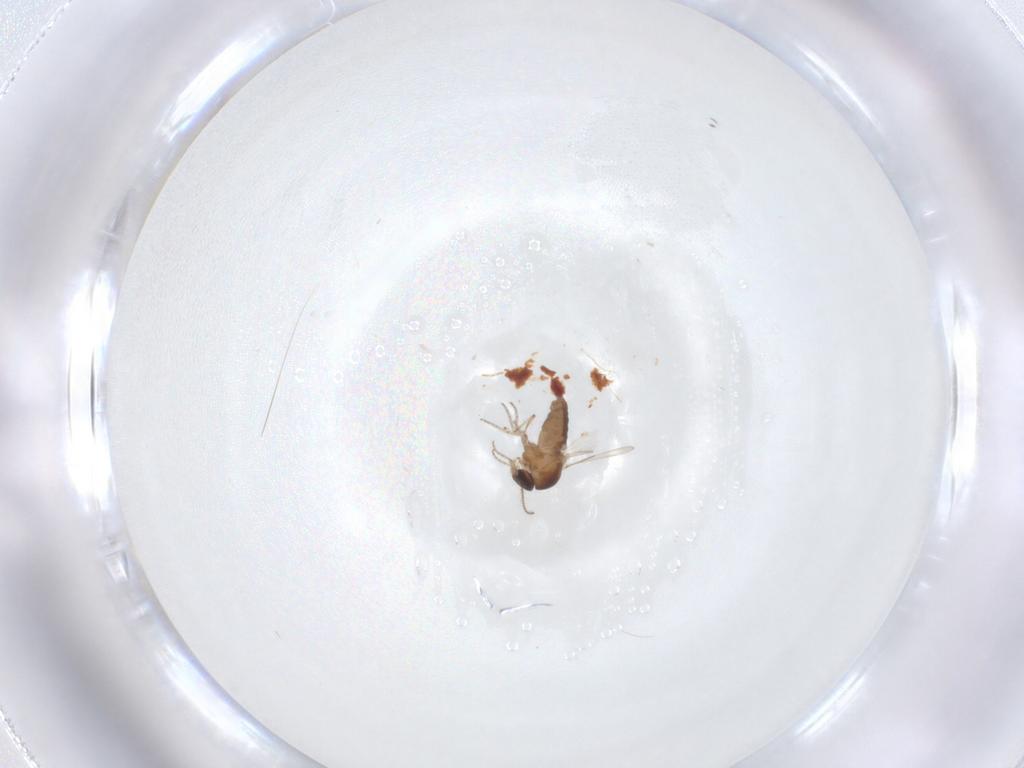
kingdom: Animalia
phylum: Arthropoda
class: Insecta
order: Diptera
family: Ceratopogonidae
